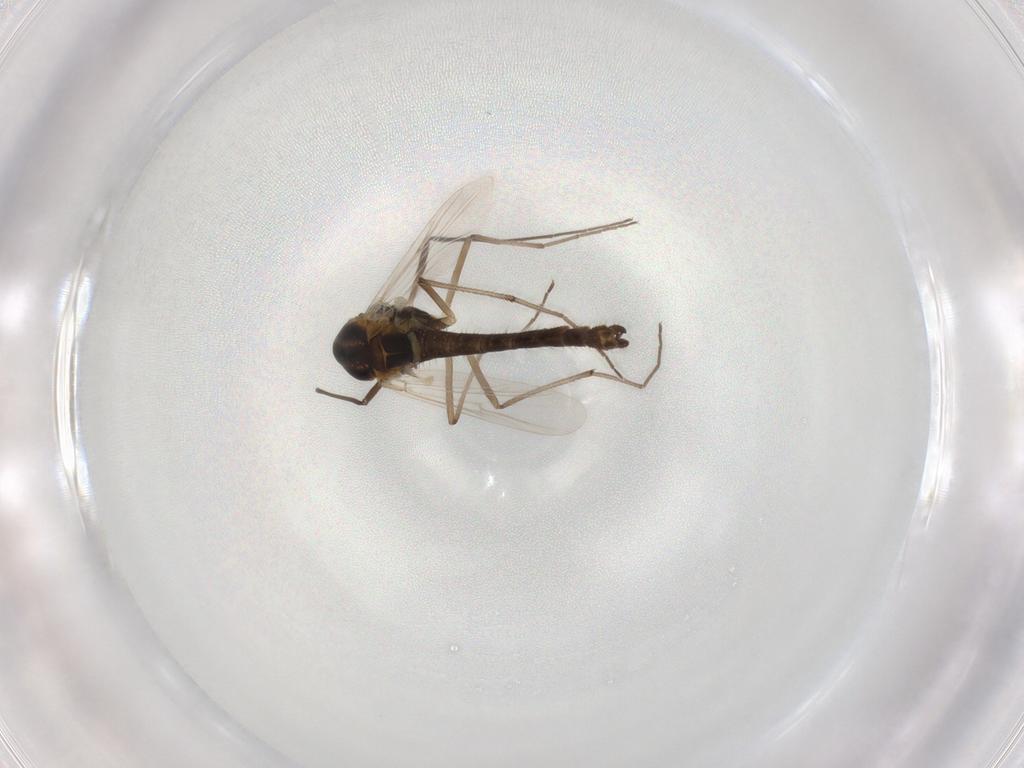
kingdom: Animalia
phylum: Arthropoda
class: Insecta
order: Diptera
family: Chironomidae
